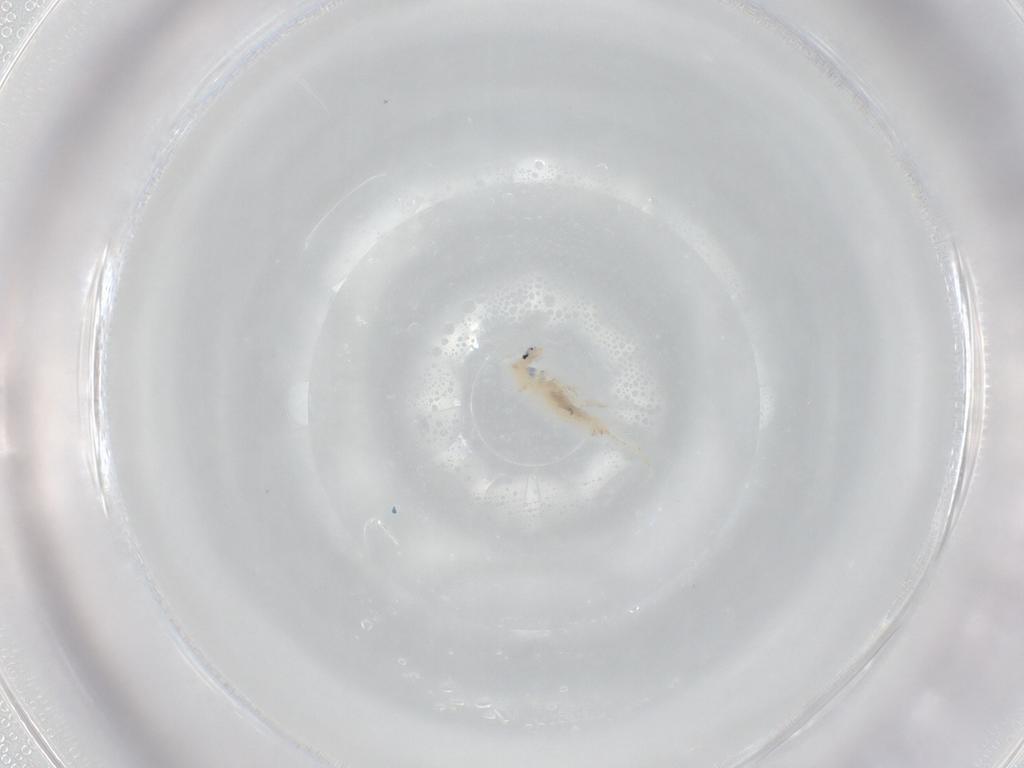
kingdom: Animalia
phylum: Arthropoda
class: Collembola
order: Entomobryomorpha
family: Entomobryidae
